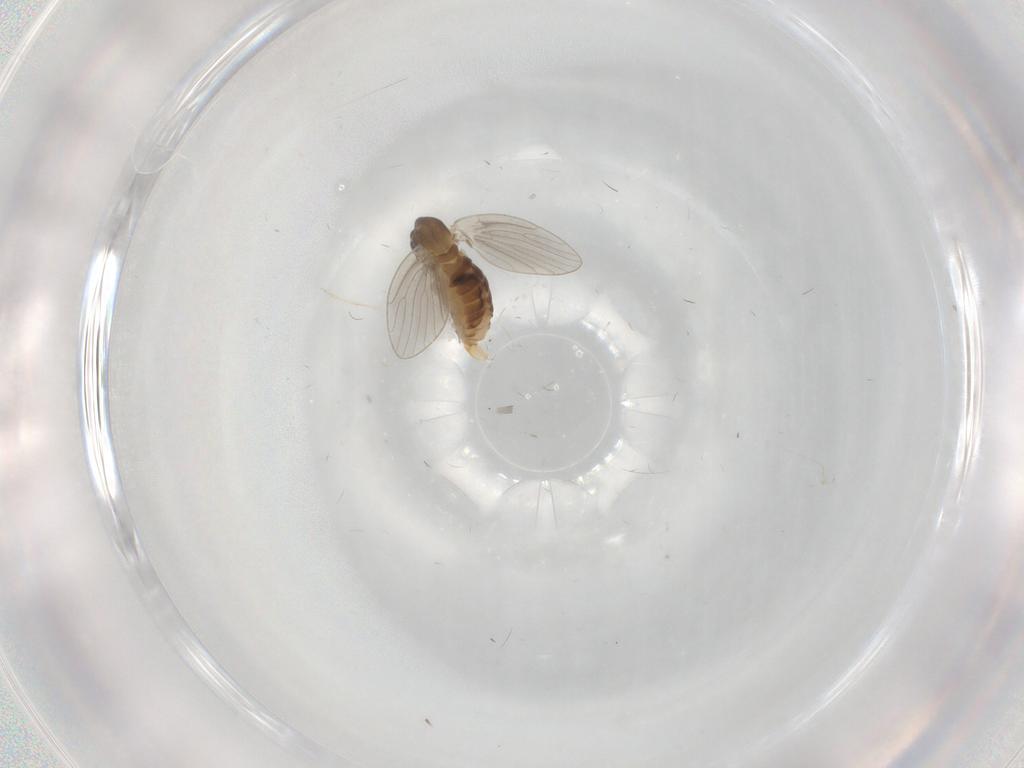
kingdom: Animalia
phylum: Arthropoda
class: Insecta
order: Diptera
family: Psychodidae
